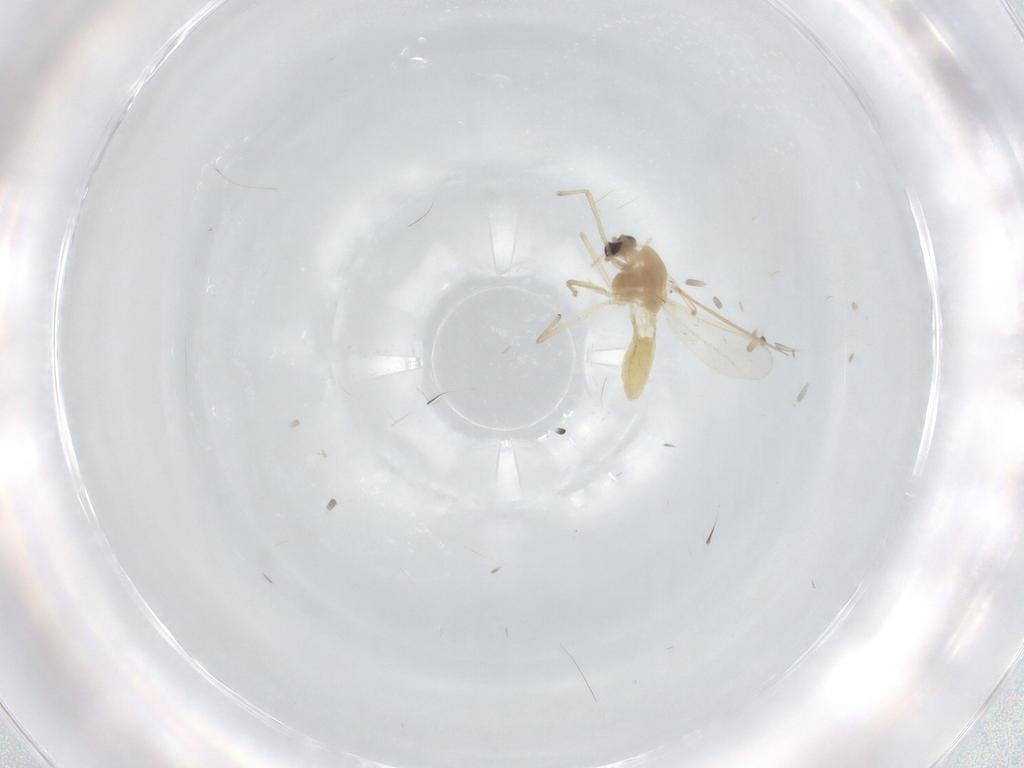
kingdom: Animalia
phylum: Arthropoda
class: Insecta
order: Diptera
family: Chironomidae
